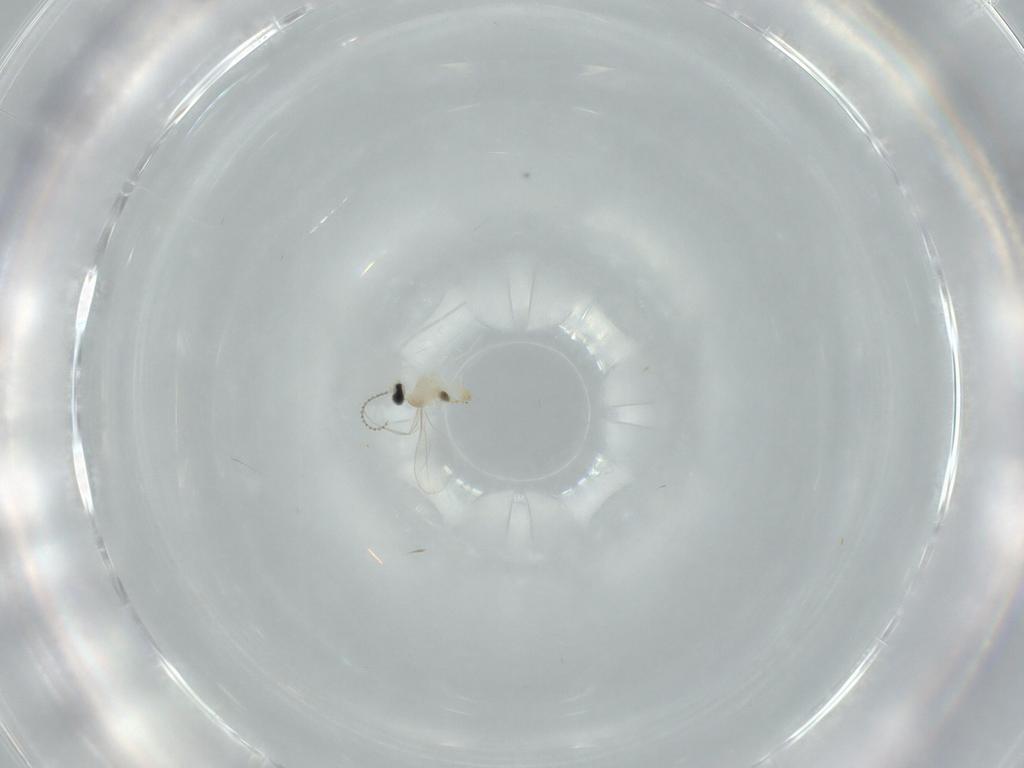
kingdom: Animalia
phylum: Arthropoda
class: Insecta
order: Diptera
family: Cecidomyiidae
